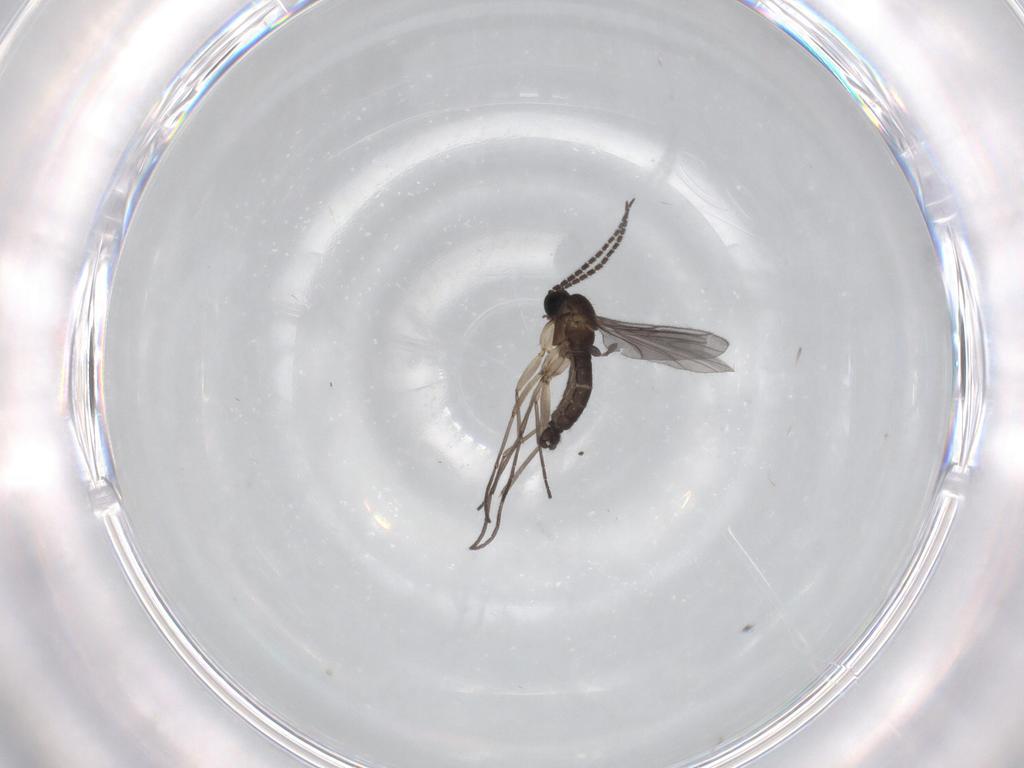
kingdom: Animalia
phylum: Arthropoda
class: Insecta
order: Diptera
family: Sciaridae
